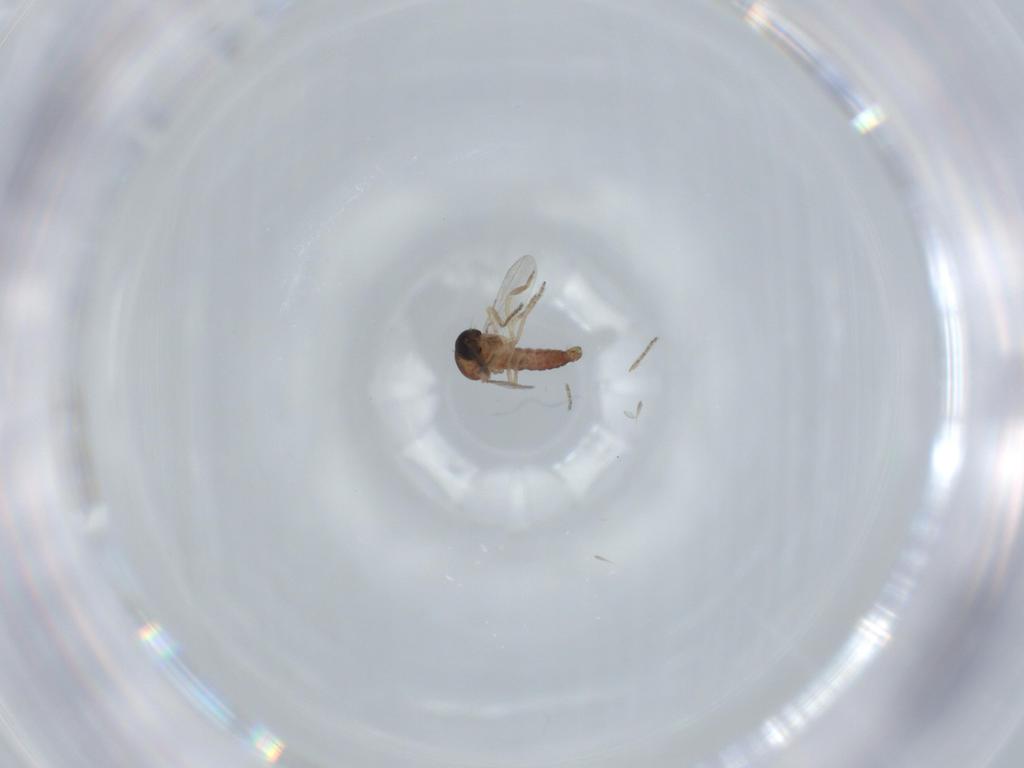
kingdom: Animalia
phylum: Arthropoda
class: Insecta
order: Diptera
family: Ceratopogonidae
